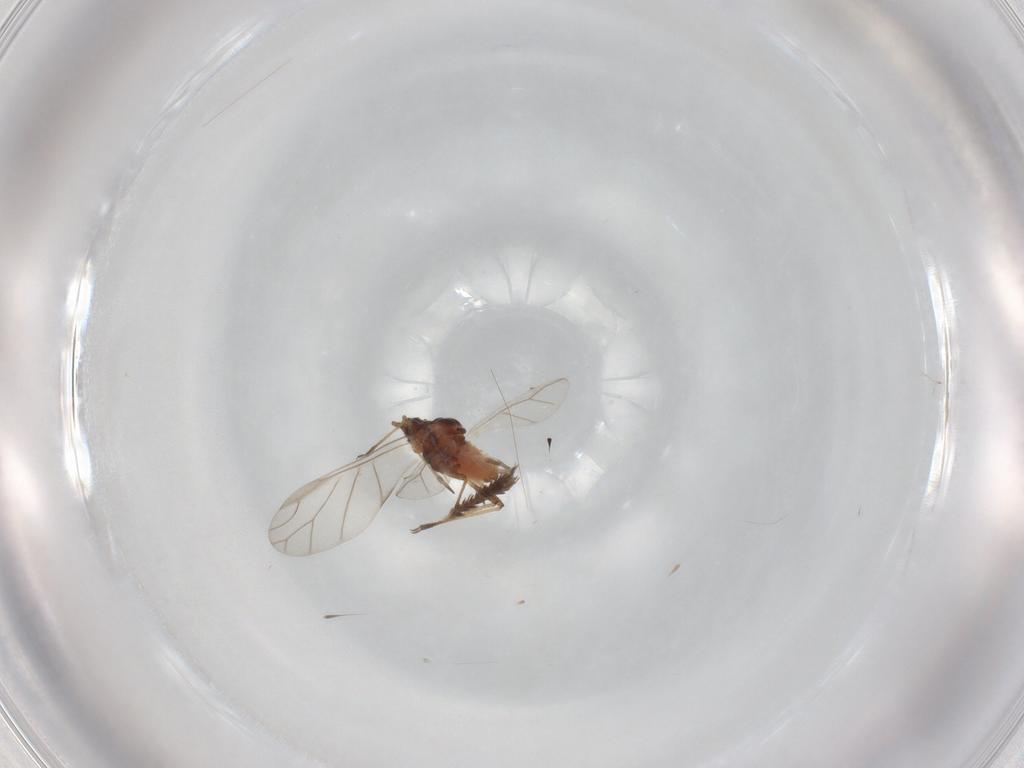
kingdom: Animalia
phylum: Arthropoda
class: Insecta
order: Hemiptera
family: Aphididae
